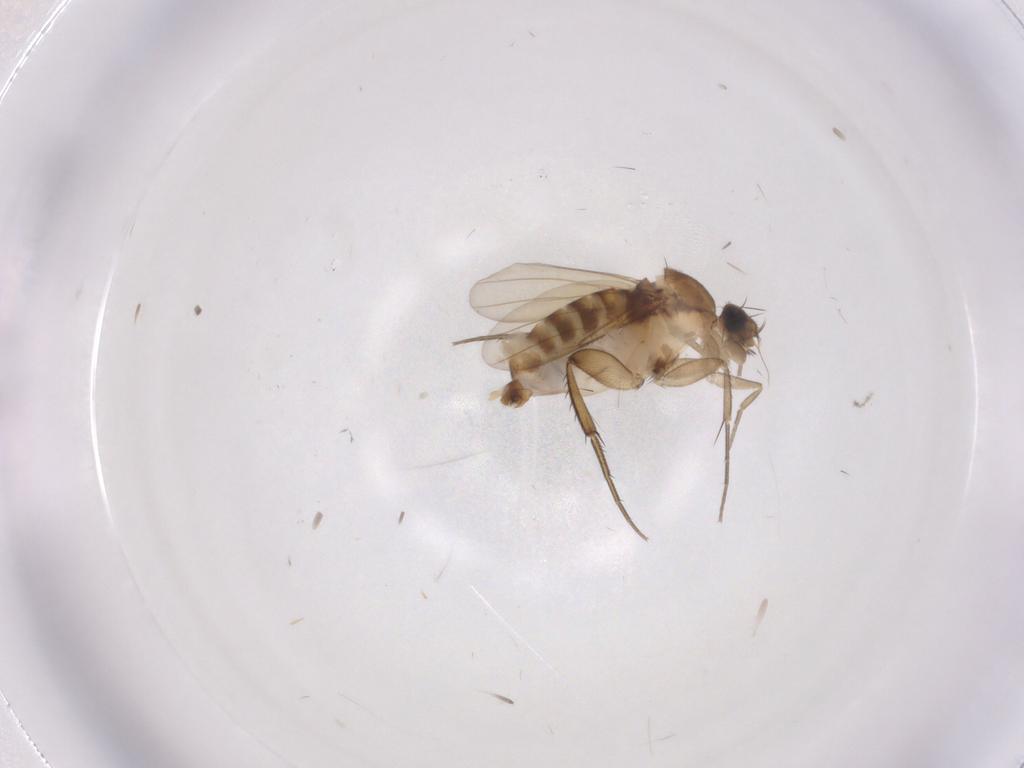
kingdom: Animalia
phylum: Arthropoda
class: Insecta
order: Diptera
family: Phoridae
